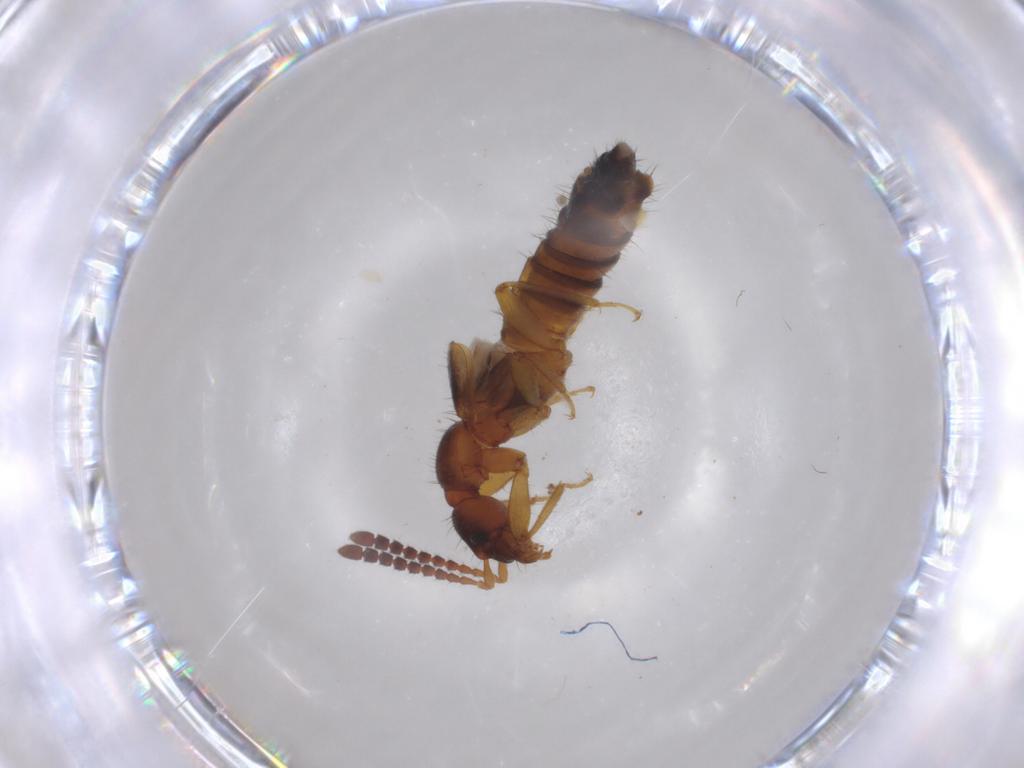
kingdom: Animalia
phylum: Arthropoda
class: Insecta
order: Coleoptera
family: Staphylinidae
